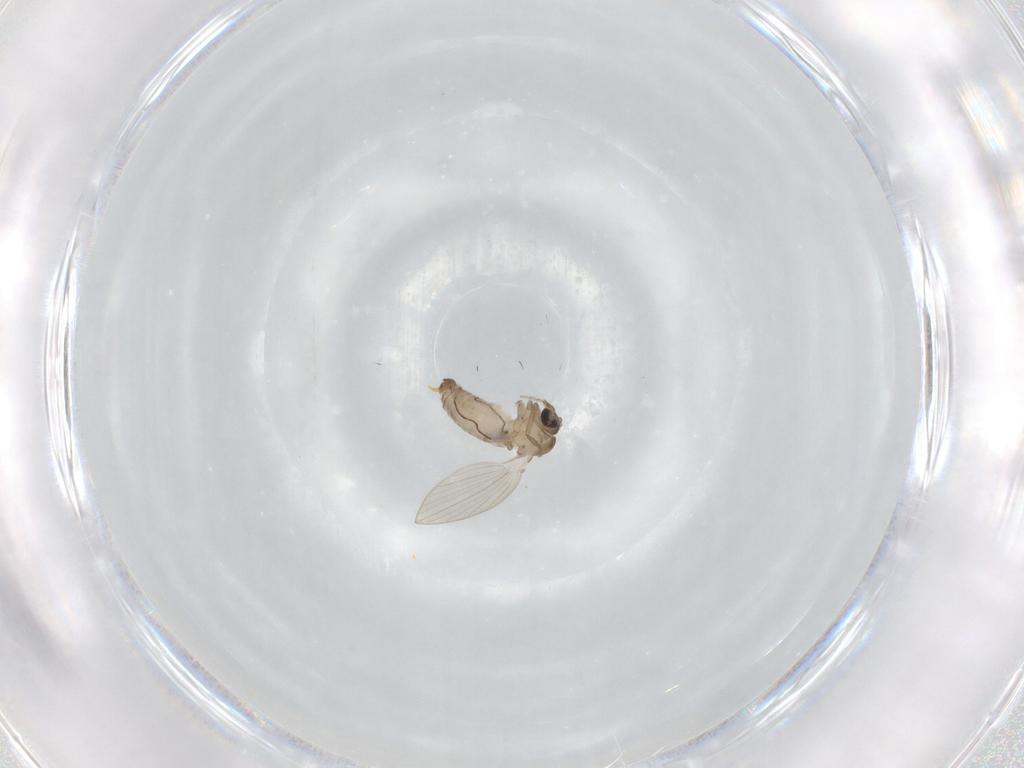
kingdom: Animalia
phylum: Arthropoda
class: Insecta
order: Diptera
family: Psychodidae
